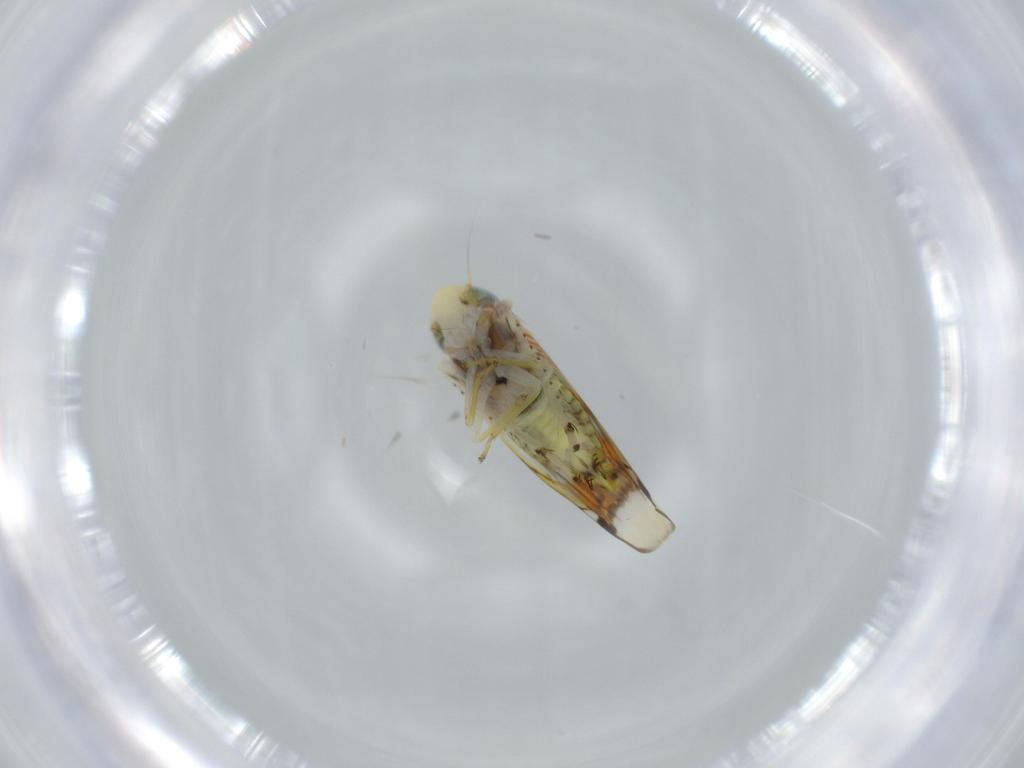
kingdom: Animalia
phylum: Arthropoda
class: Insecta
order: Hemiptera
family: Cicadellidae
